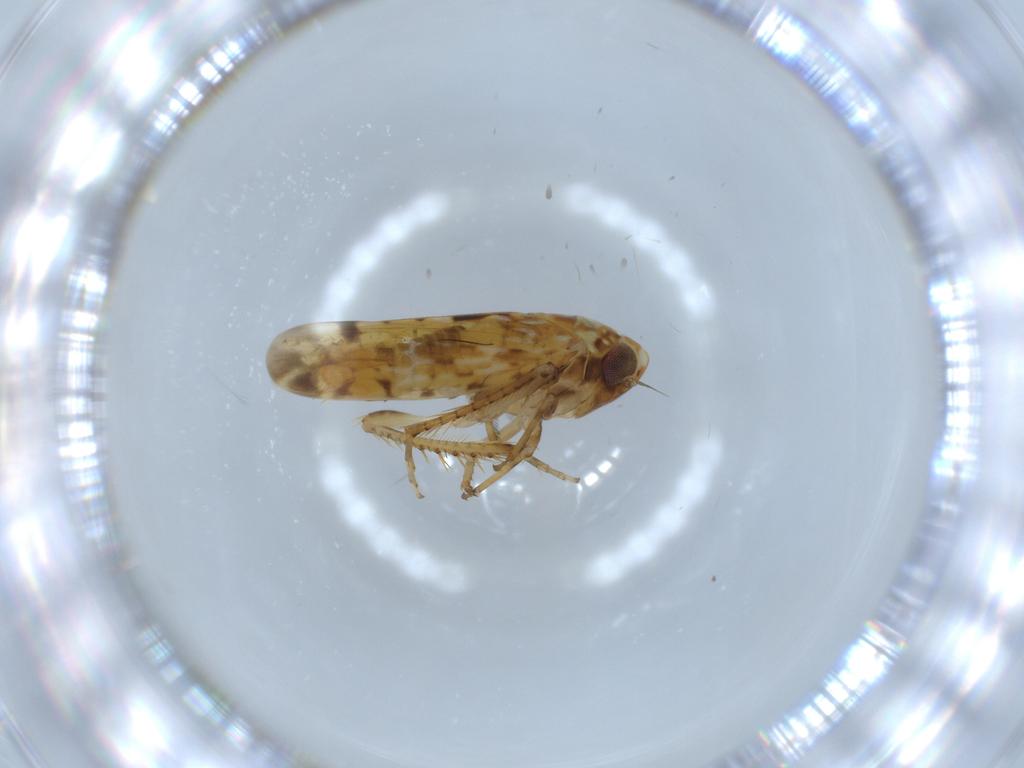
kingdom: Animalia
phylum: Arthropoda
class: Insecta
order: Hemiptera
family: Cicadellidae
